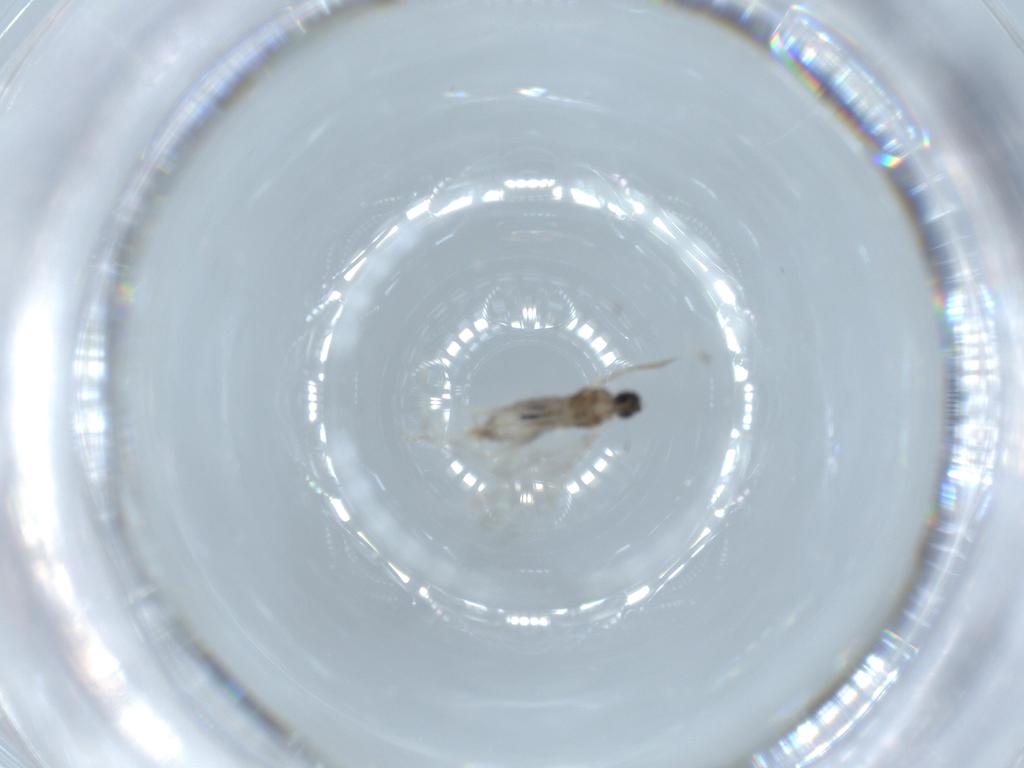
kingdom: Animalia
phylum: Arthropoda
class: Insecta
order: Diptera
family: Cecidomyiidae
